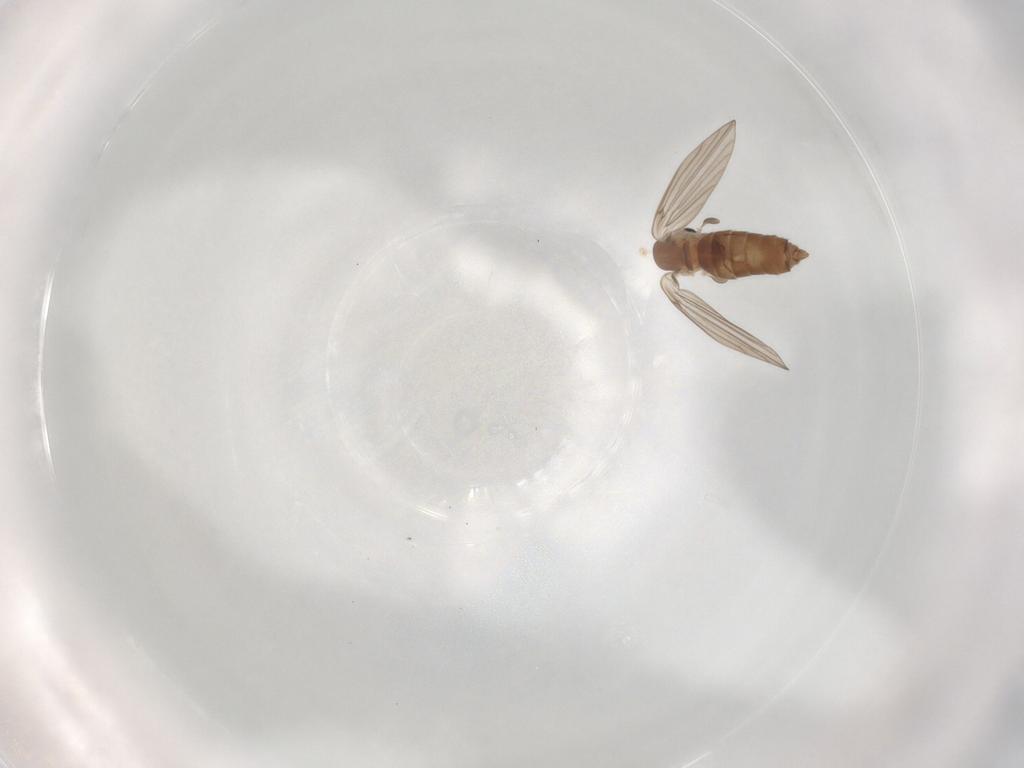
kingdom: Animalia
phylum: Arthropoda
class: Insecta
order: Diptera
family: Psychodidae
